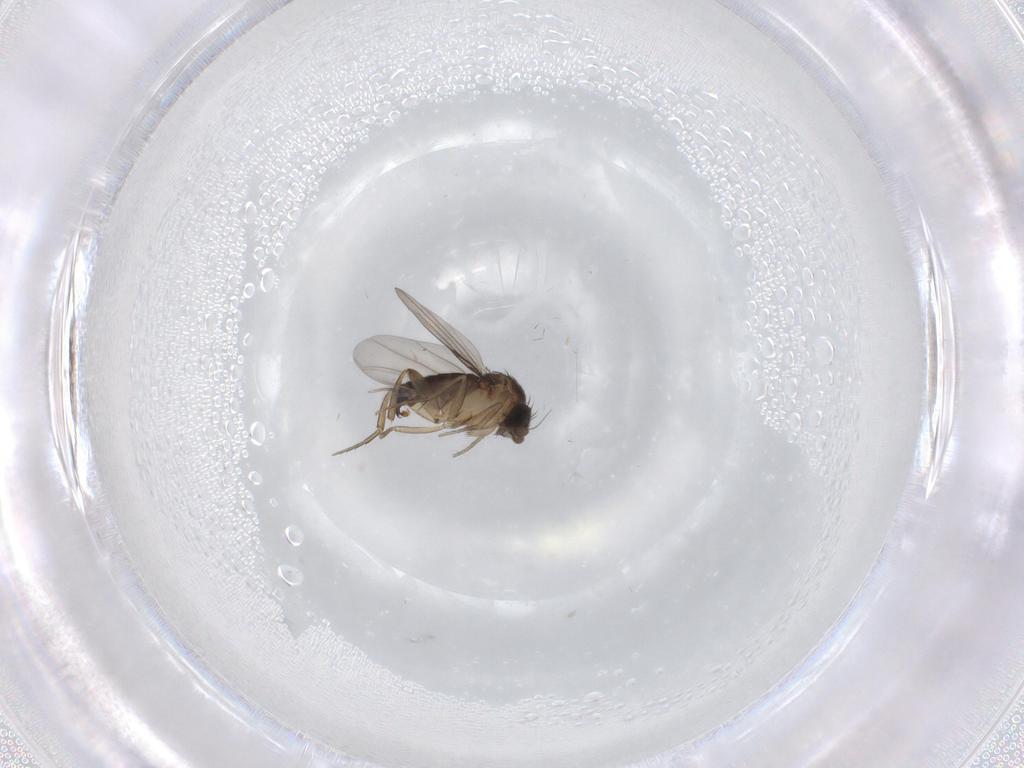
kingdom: Animalia
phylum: Arthropoda
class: Insecta
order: Diptera
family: Phoridae
